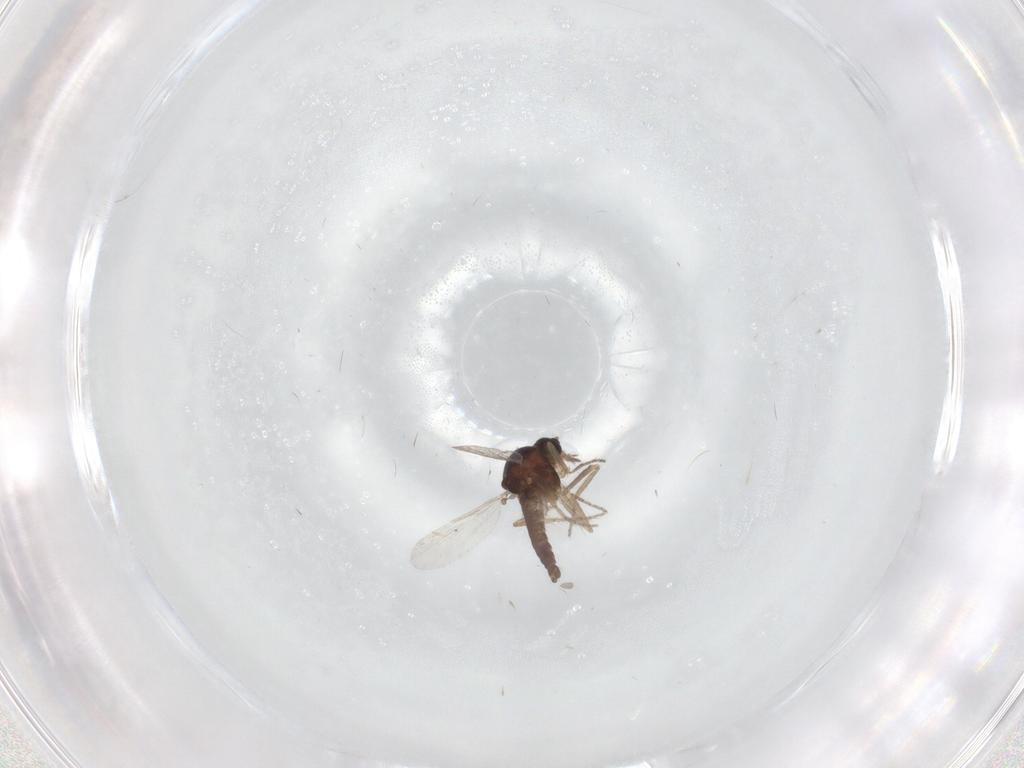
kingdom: Animalia
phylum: Arthropoda
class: Insecta
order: Diptera
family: Ceratopogonidae
